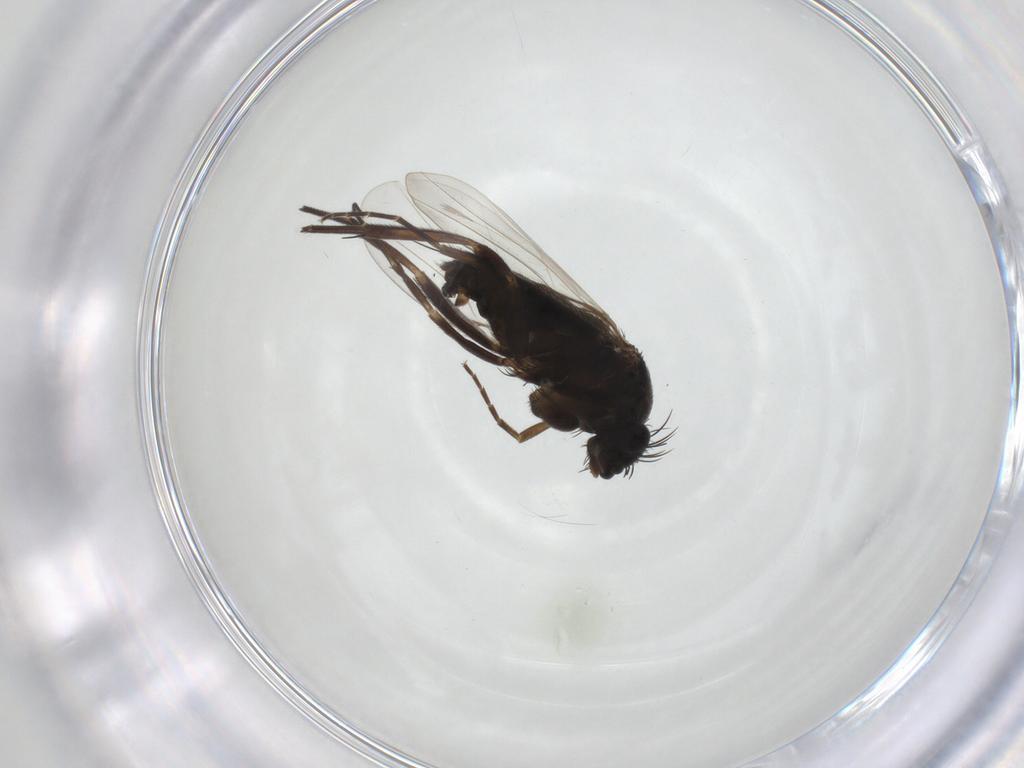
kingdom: Animalia
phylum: Arthropoda
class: Insecta
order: Diptera
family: Phoridae
